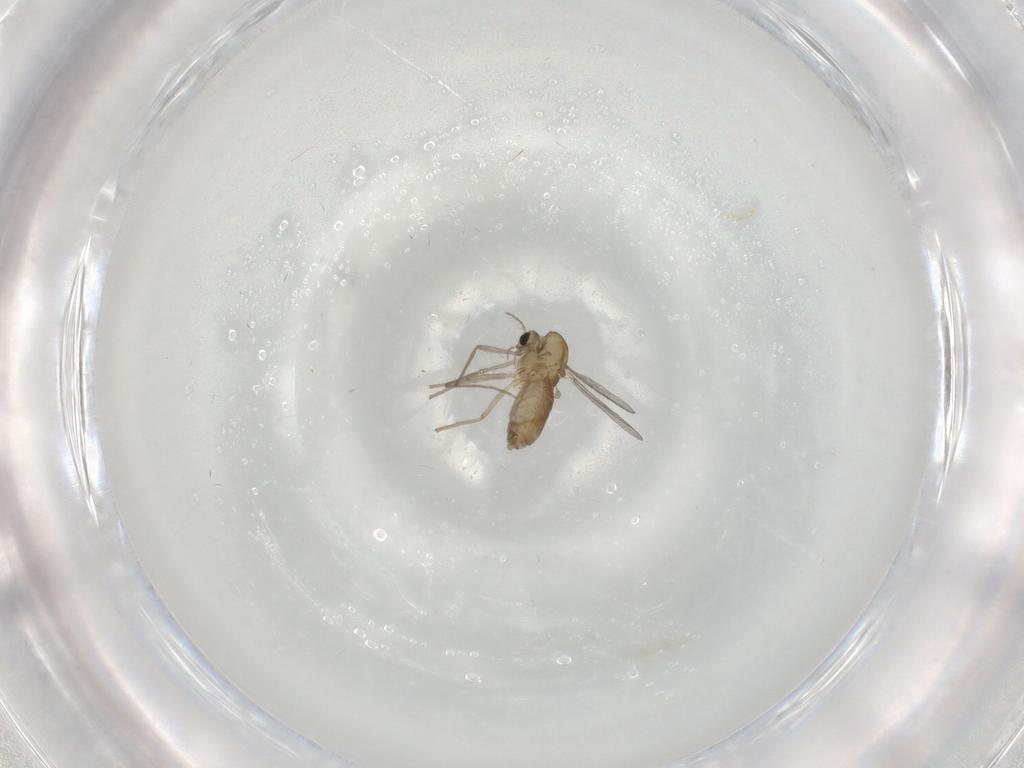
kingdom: Animalia
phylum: Arthropoda
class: Insecta
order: Diptera
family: Chironomidae
